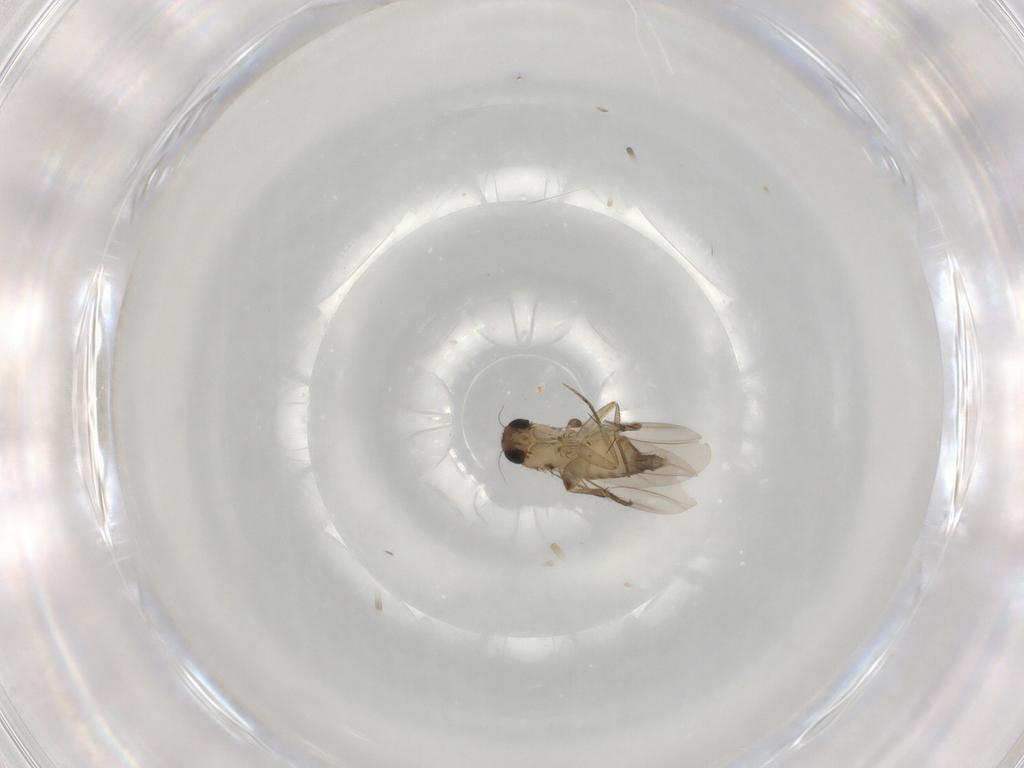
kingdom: Animalia
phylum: Arthropoda
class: Insecta
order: Diptera
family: Phoridae
